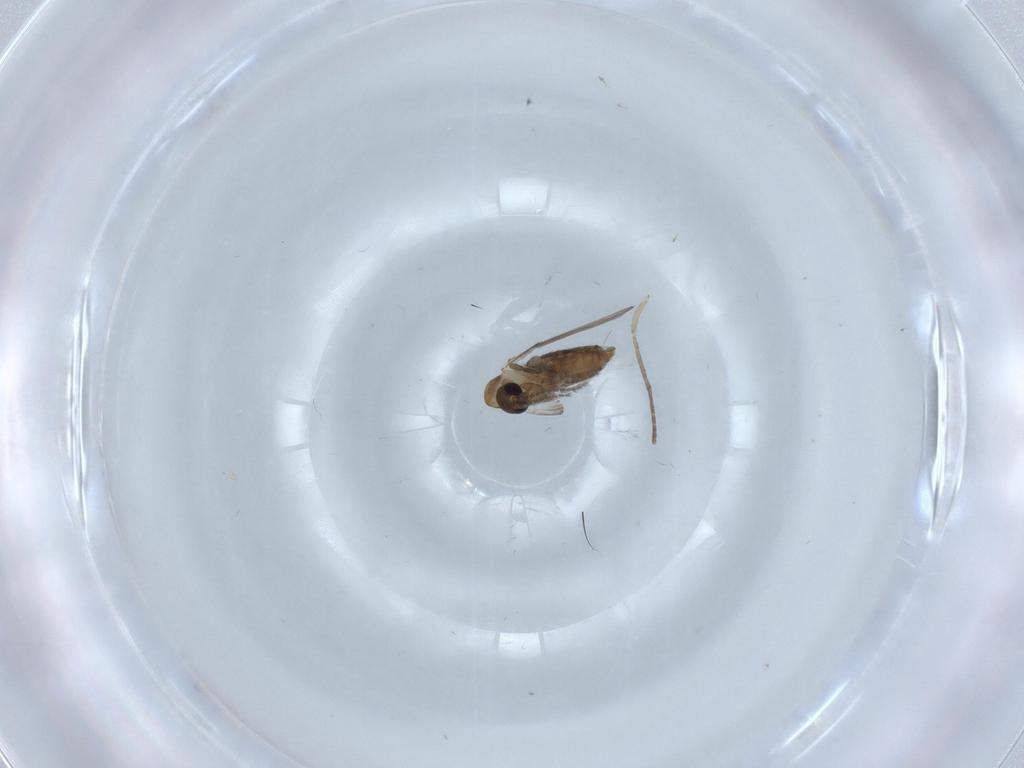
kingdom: Animalia
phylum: Arthropoda
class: Insecta
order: Diptera
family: Psychodidae
